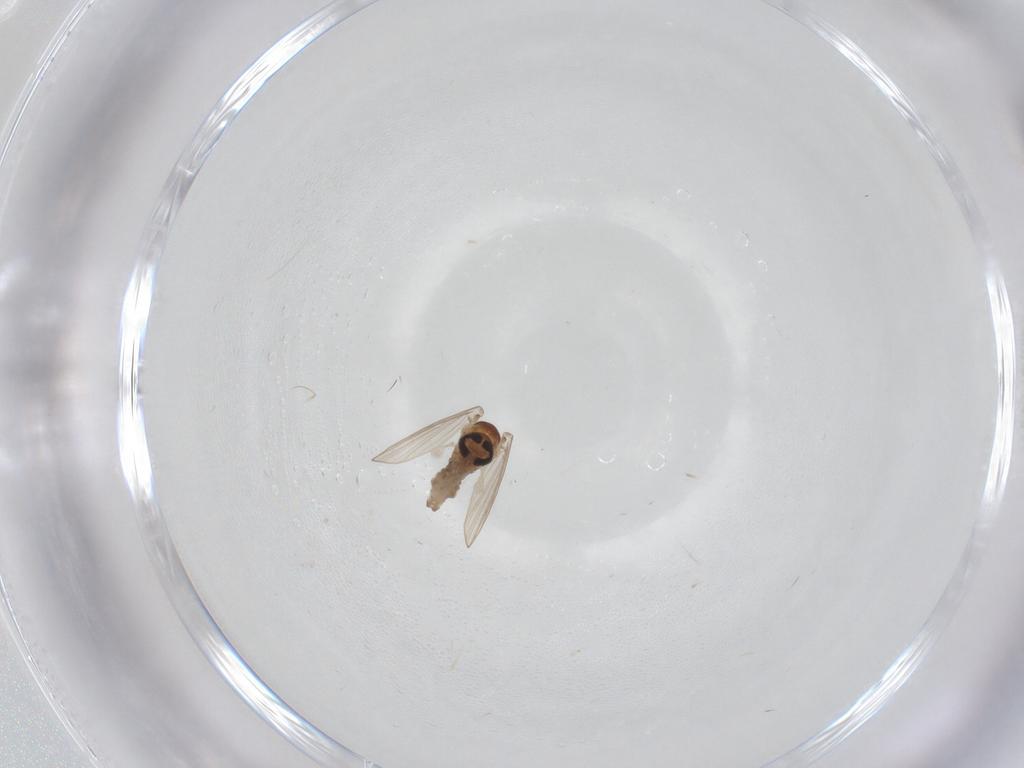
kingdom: Animalia
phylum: Arthropoda
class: Insecta
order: Diptera
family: Psychodidae
